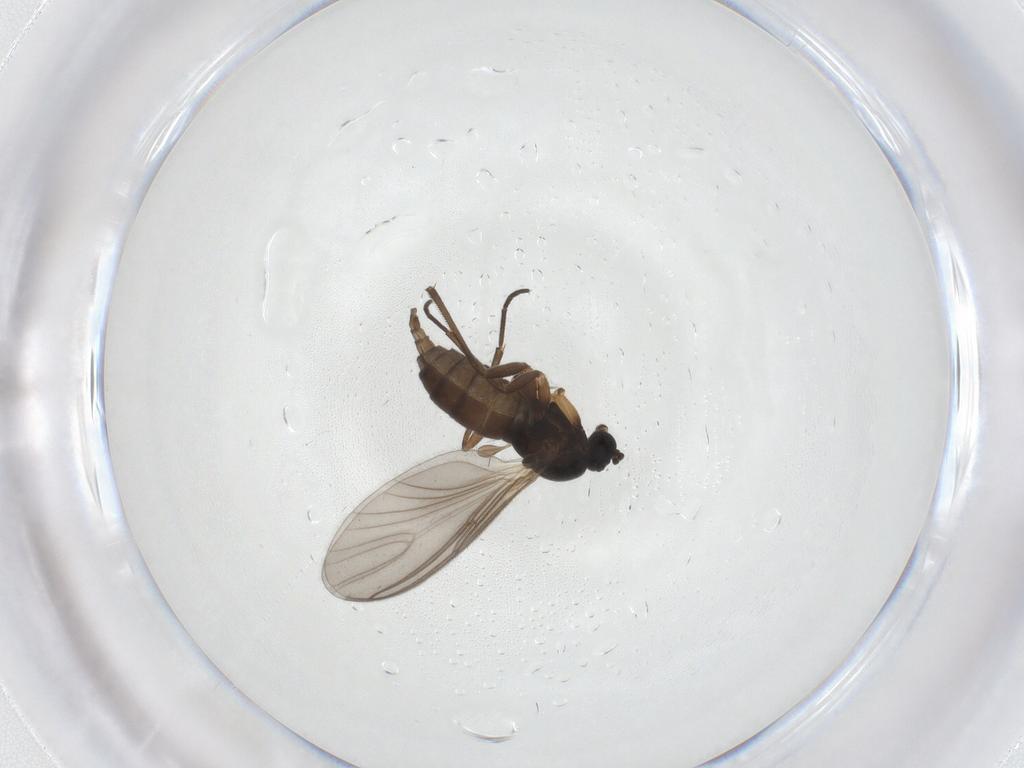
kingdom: Animalia
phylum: Arthropoda
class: Insecta
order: Diptera
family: Sciaridae
